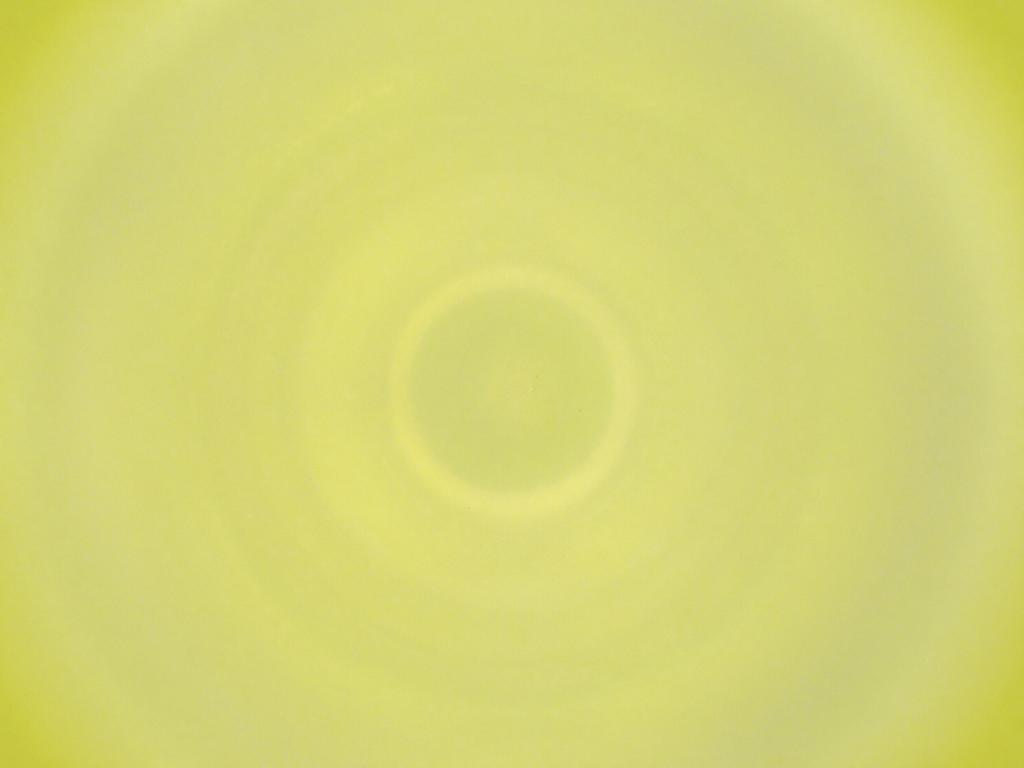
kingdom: Animalia
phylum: Arthropoda
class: Insecta
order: Diptera
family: Cecidomyiidae
